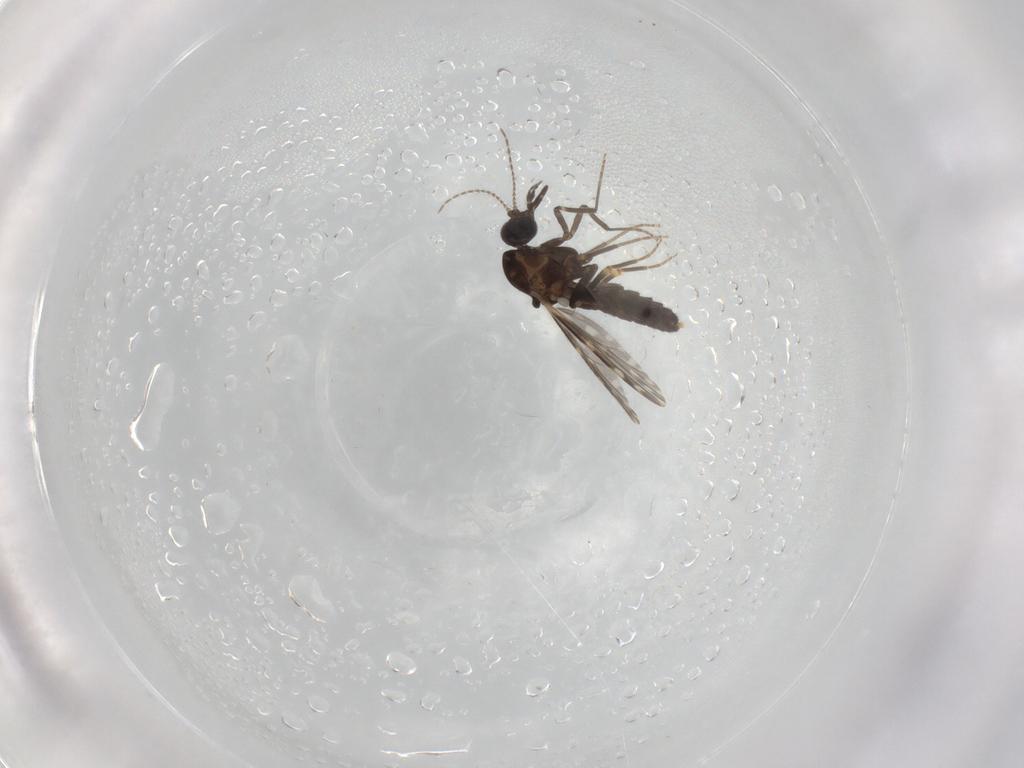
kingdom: Animalia
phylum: Arthropoda
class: Insecta
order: Diptera
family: Ceratopogonidae
